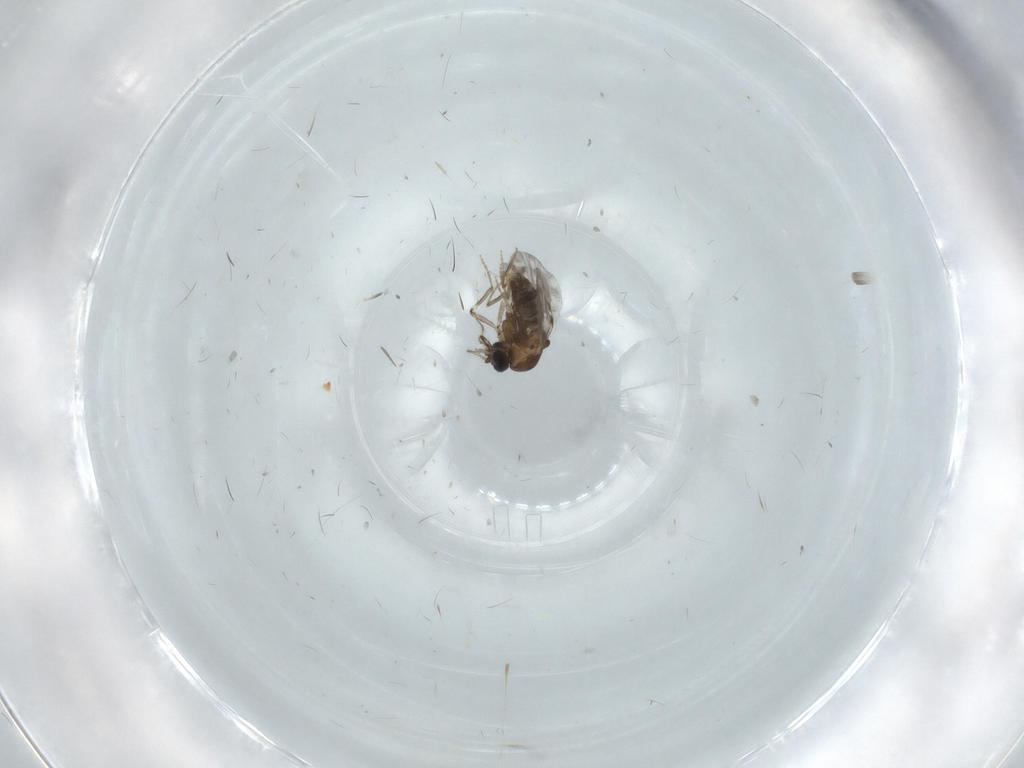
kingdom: Animalia
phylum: Arthropoda
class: Insecta
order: Diptera
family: Ceratopogonidae
